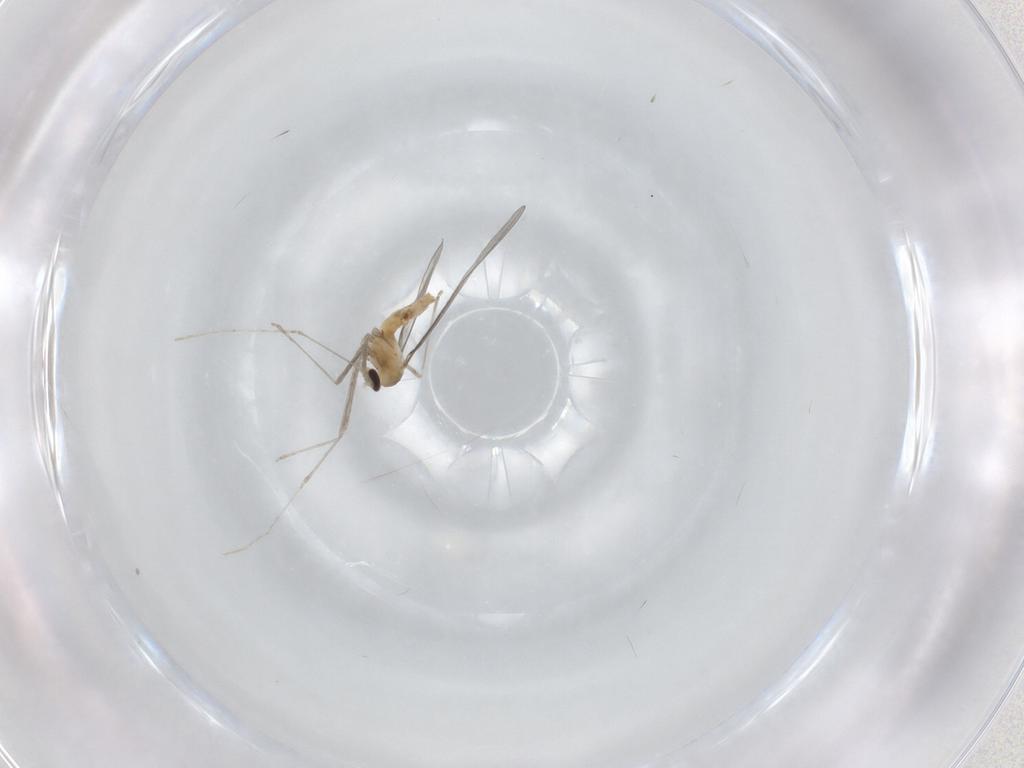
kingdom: Animalia
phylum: Arthropoda
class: Insecta
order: Diptera
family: Cecidomyiidae
